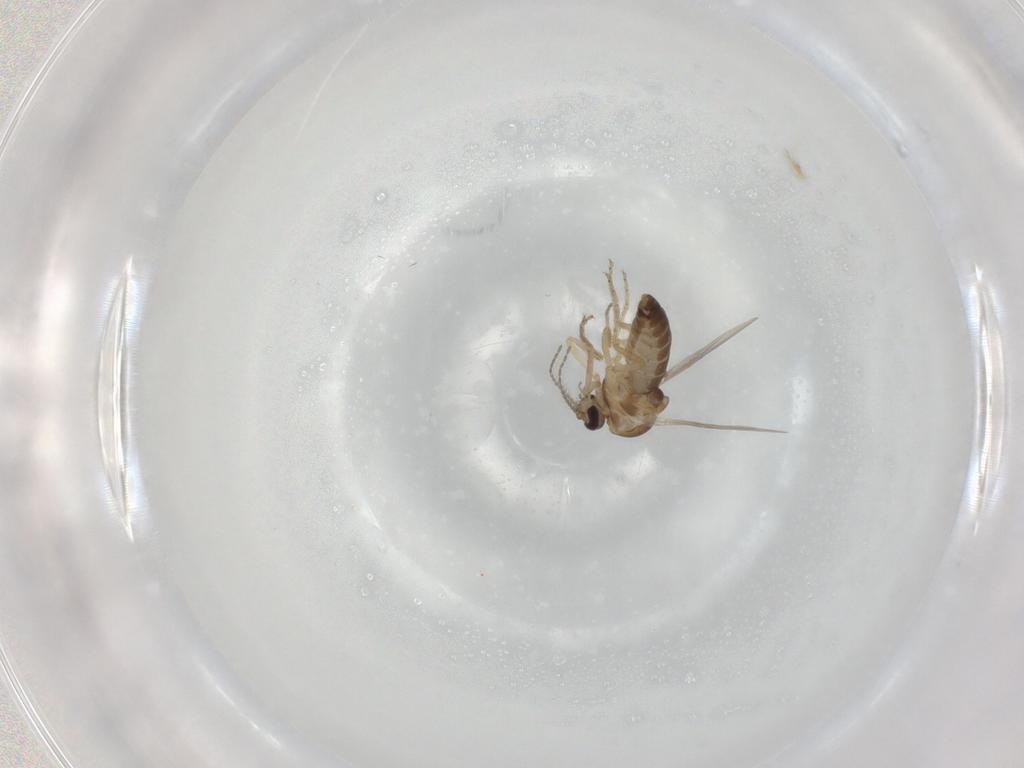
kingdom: Animalia
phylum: Arthropoda
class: Insecta
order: Diptera
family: Ceratopogonidae
